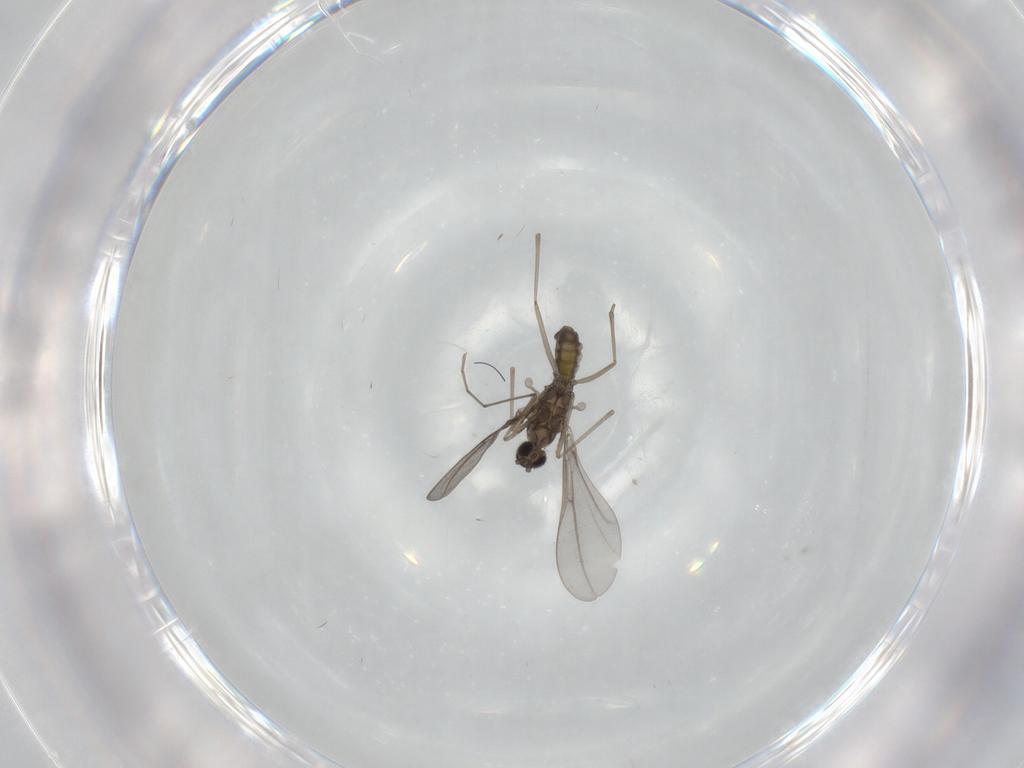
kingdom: Animalia
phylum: Arthropoda
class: Insecta
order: Diptera
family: Cecidomyiidae
